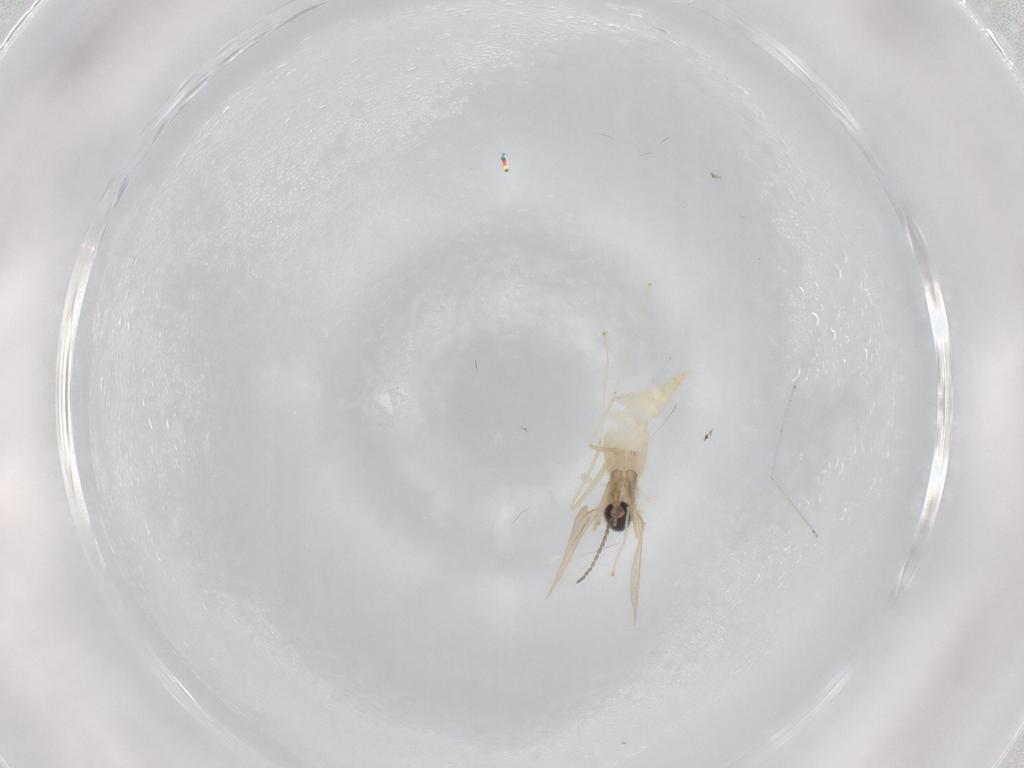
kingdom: Animalia
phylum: Arthropoda
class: Insecta
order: Diptera
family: Cecidomyiidae
